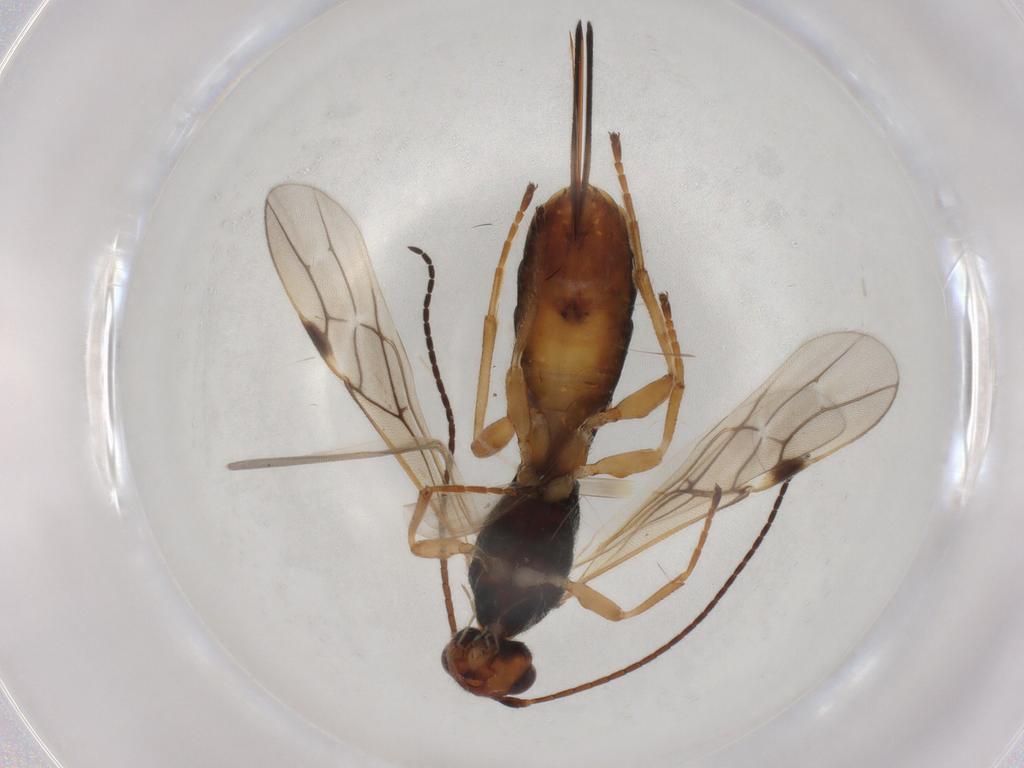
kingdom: Animalia
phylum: Arthropoda
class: Insecta
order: Hymenoptera
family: Braconidae
